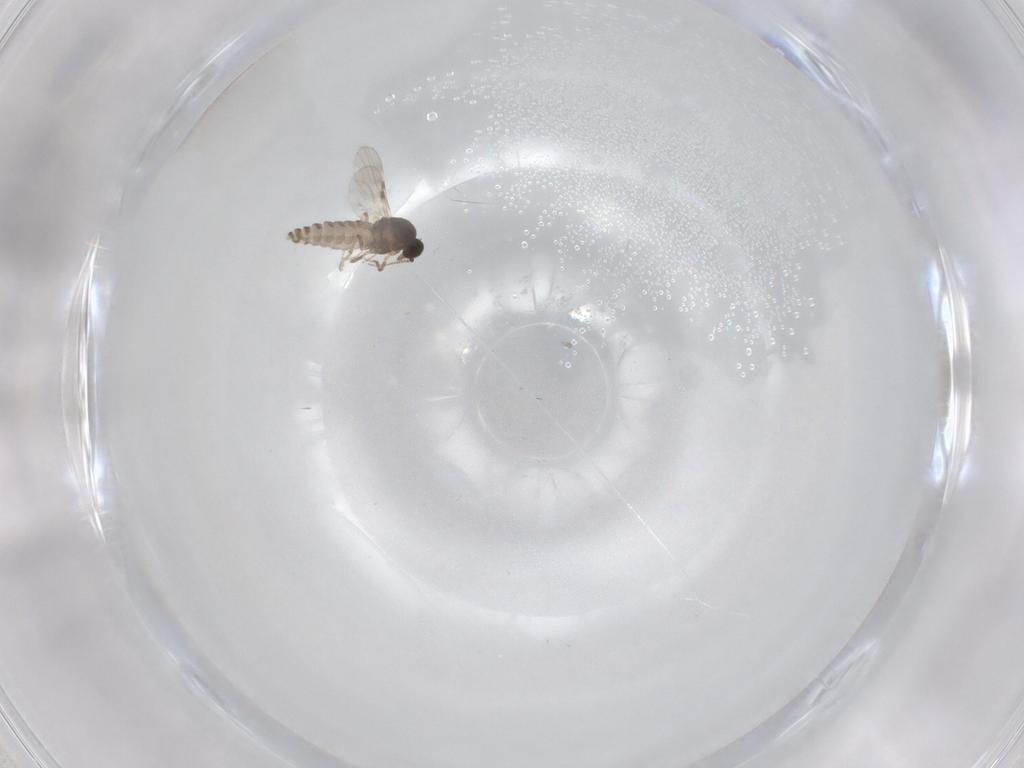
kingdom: Animalia
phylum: Arthropoda
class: Insecta
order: Diptera
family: Phoridae
